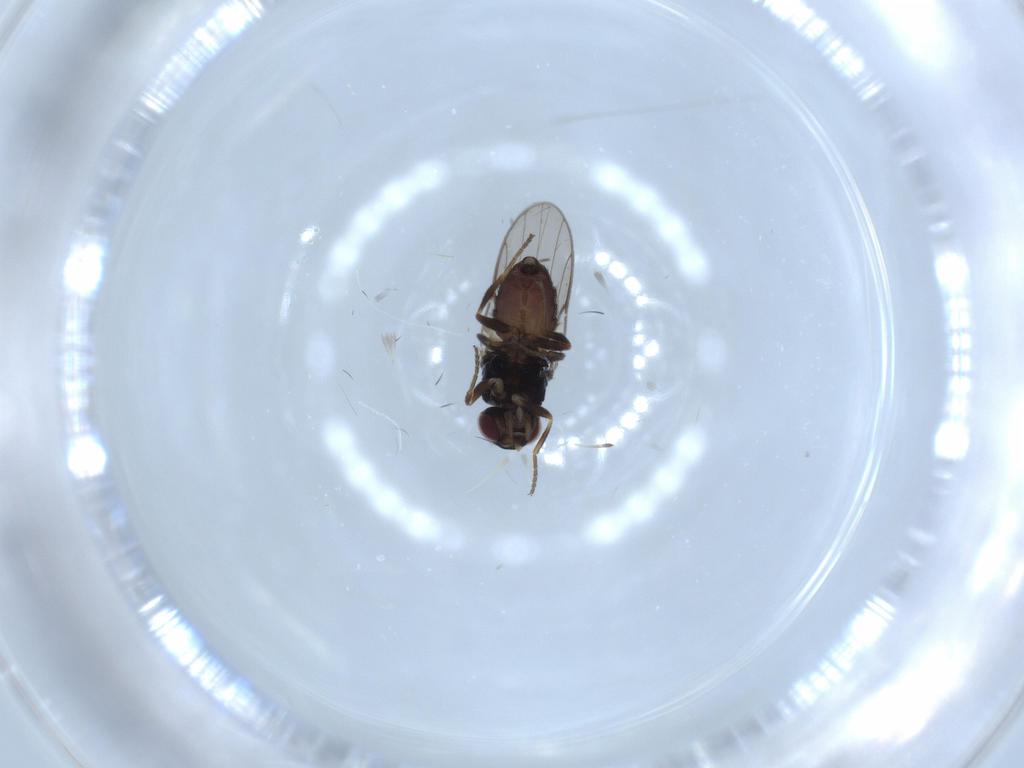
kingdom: Animalia
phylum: Arthropoda
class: Insecta
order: Diptera
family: Chloropidae
